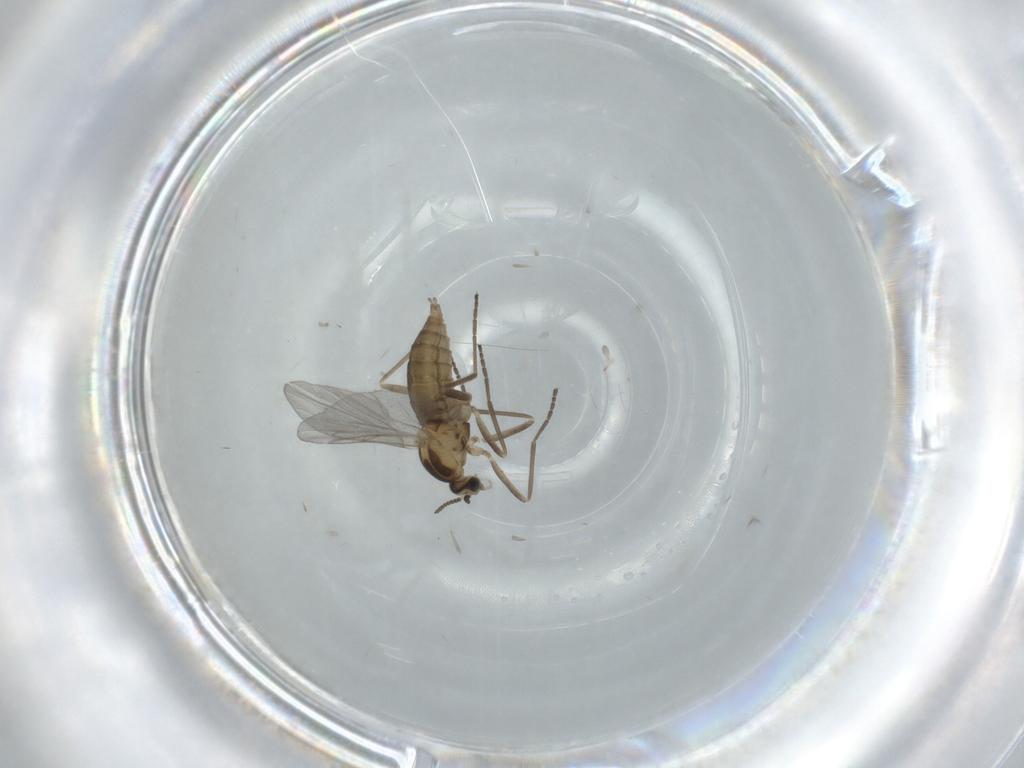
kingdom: Animalia
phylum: Arthropoda
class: Insecta
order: Diptera
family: Cecidomyiidae
